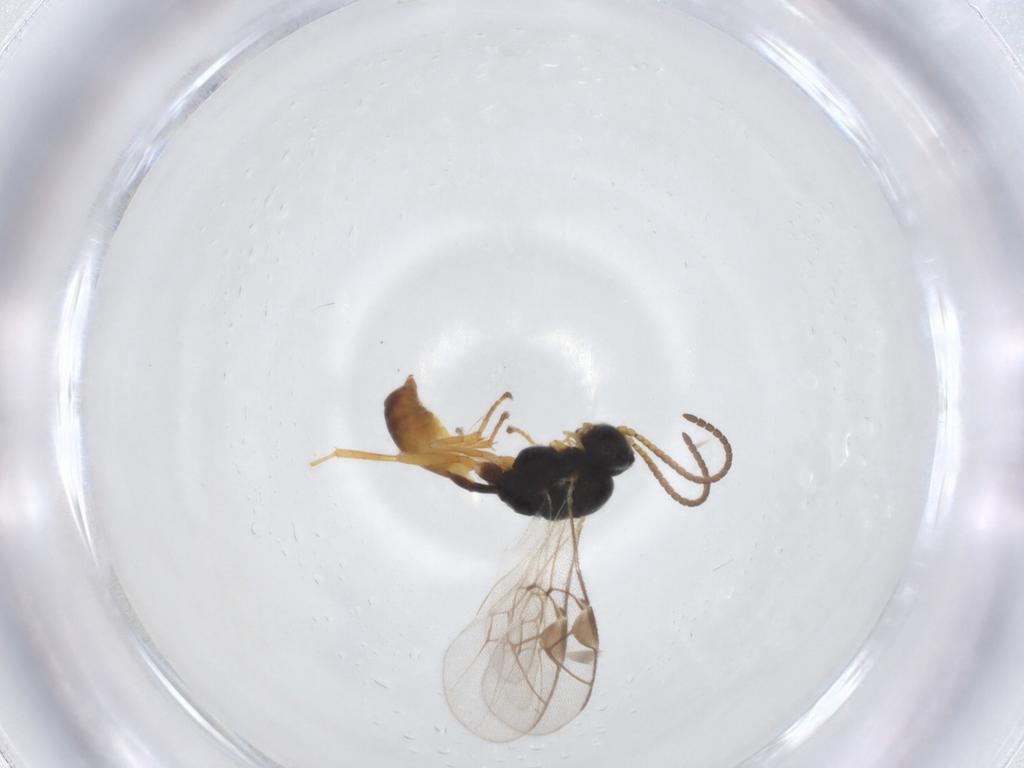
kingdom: Animalia
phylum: Arthropoda
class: Insecta
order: Hymenoptera
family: Ichneumonidae
